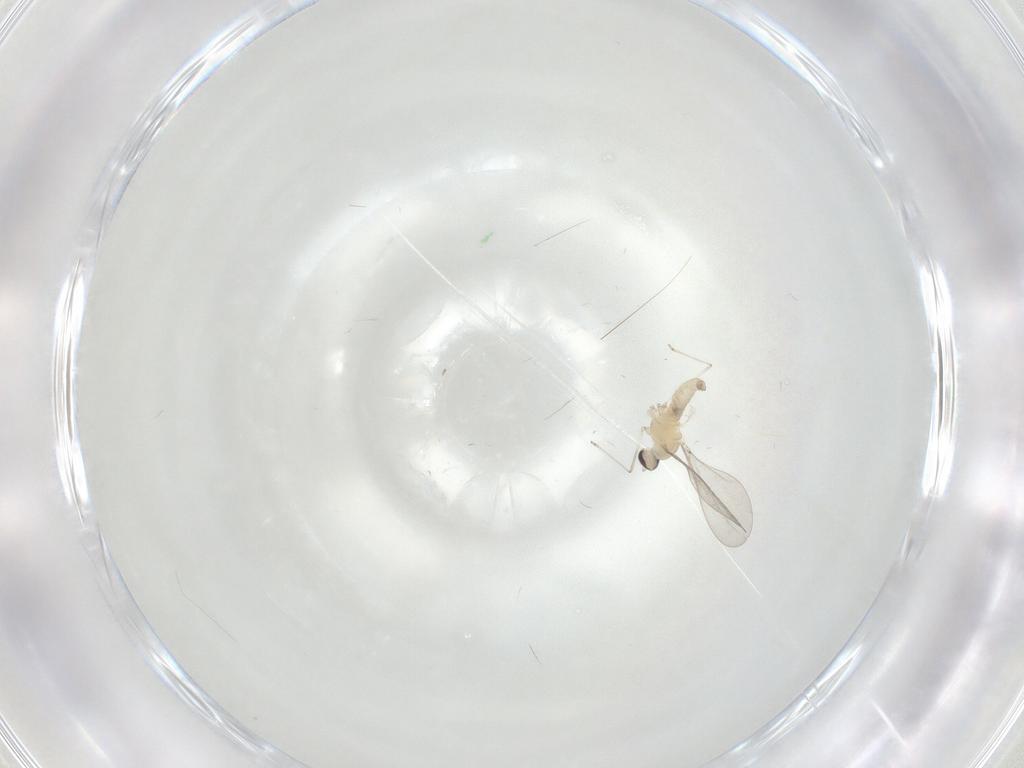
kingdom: Animalia
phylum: Arthropoda
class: Insecta
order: Diptera
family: Cecidomyiidae
